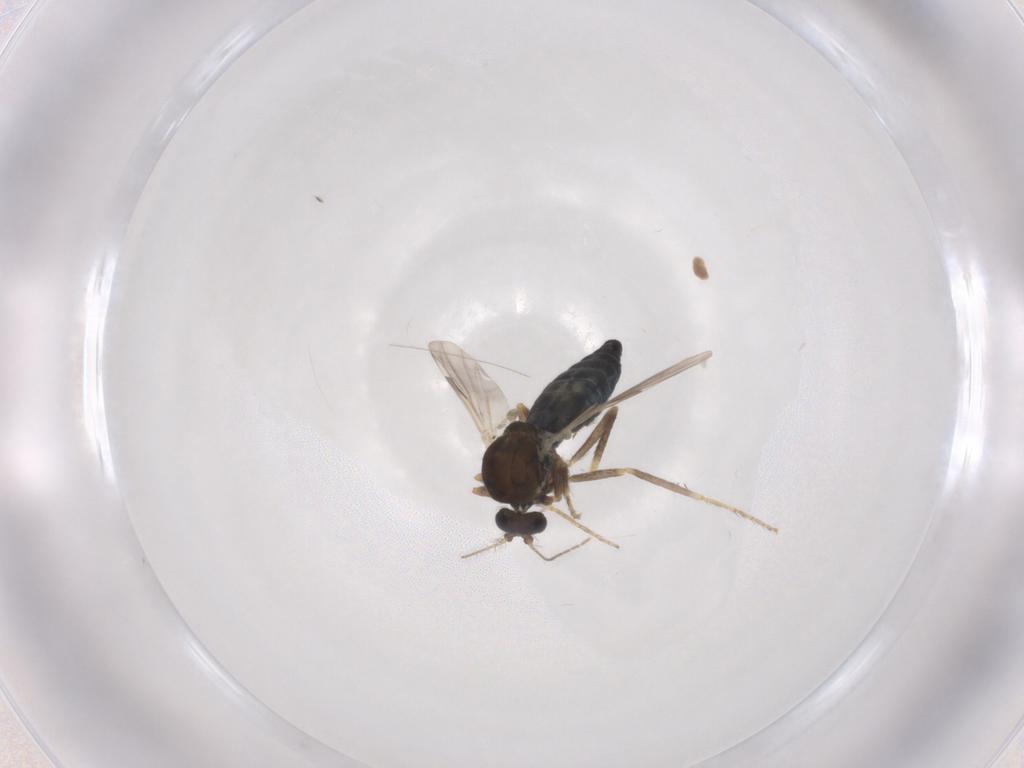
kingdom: Animalia
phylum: Arthropoda
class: Insecta
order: Diptera
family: Ceratopogonidae
